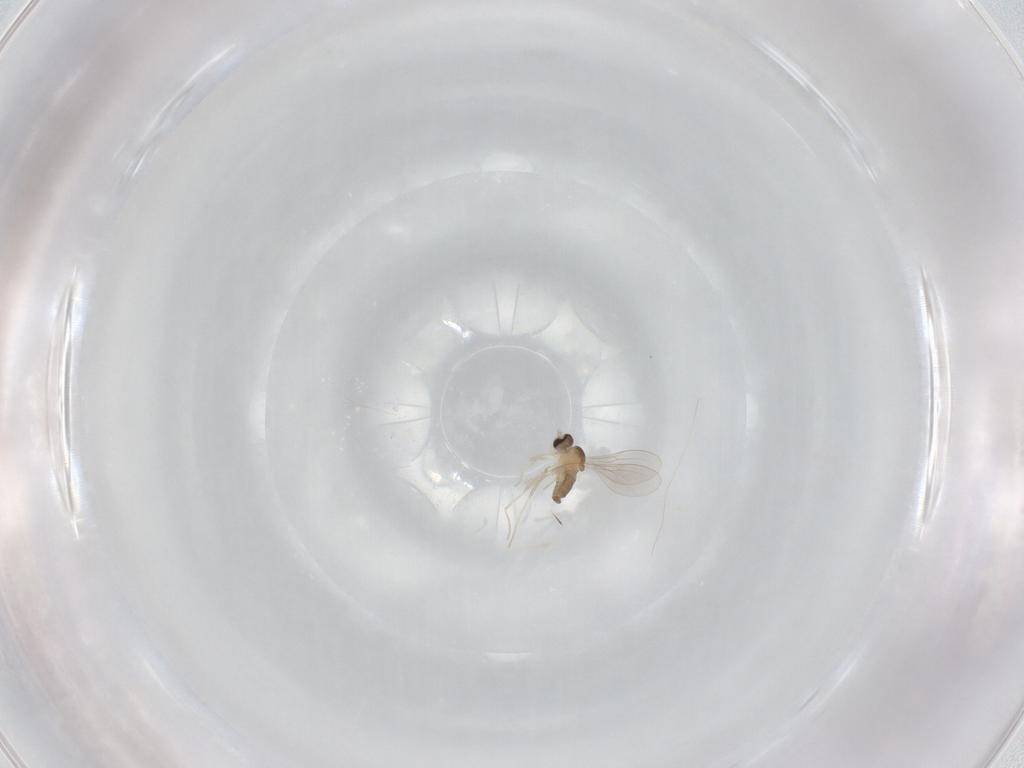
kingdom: Animalia
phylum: Arthropoda
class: Insecta
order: Diptera
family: Cecidomyiidae
